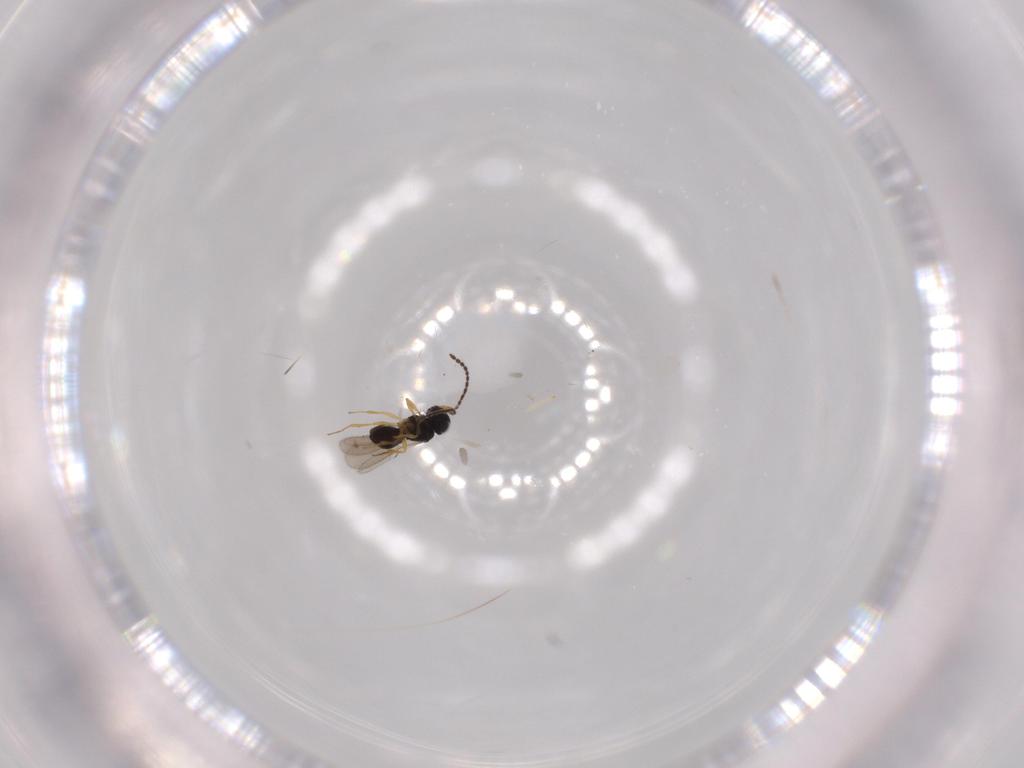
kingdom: Animalia
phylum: Arthropoda
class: Insecta
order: Hymenoptera
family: Scelionidae
